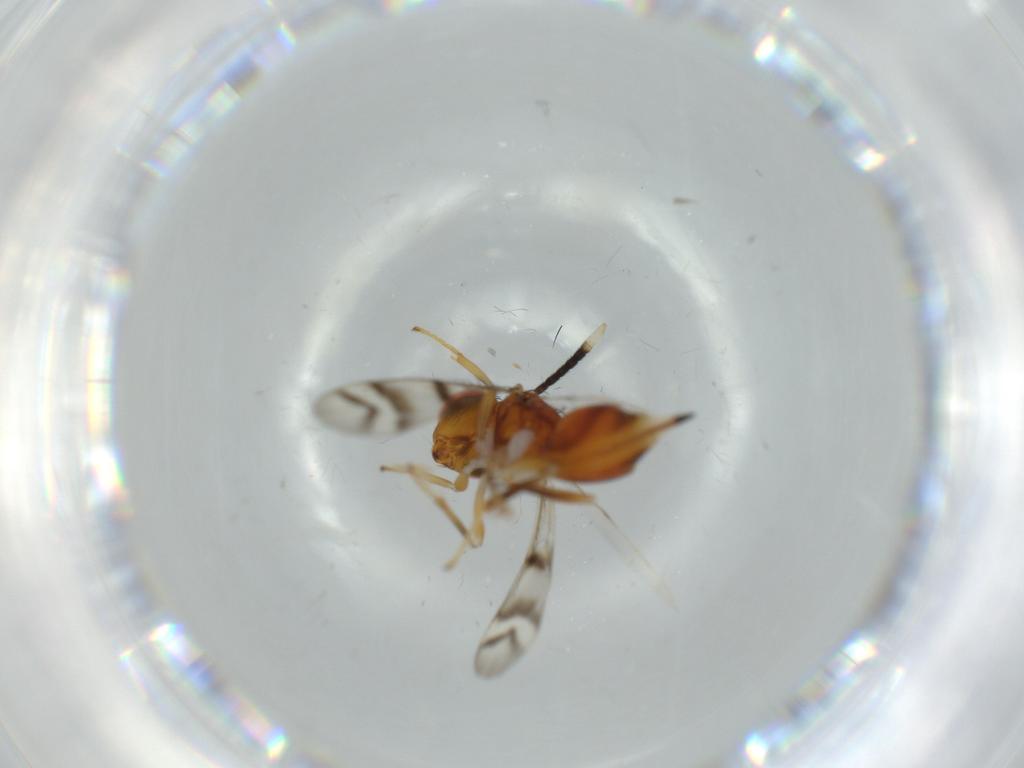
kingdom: Animalia
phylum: Arthropoda
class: Insecta
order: Hymenoptera
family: Diparidae
